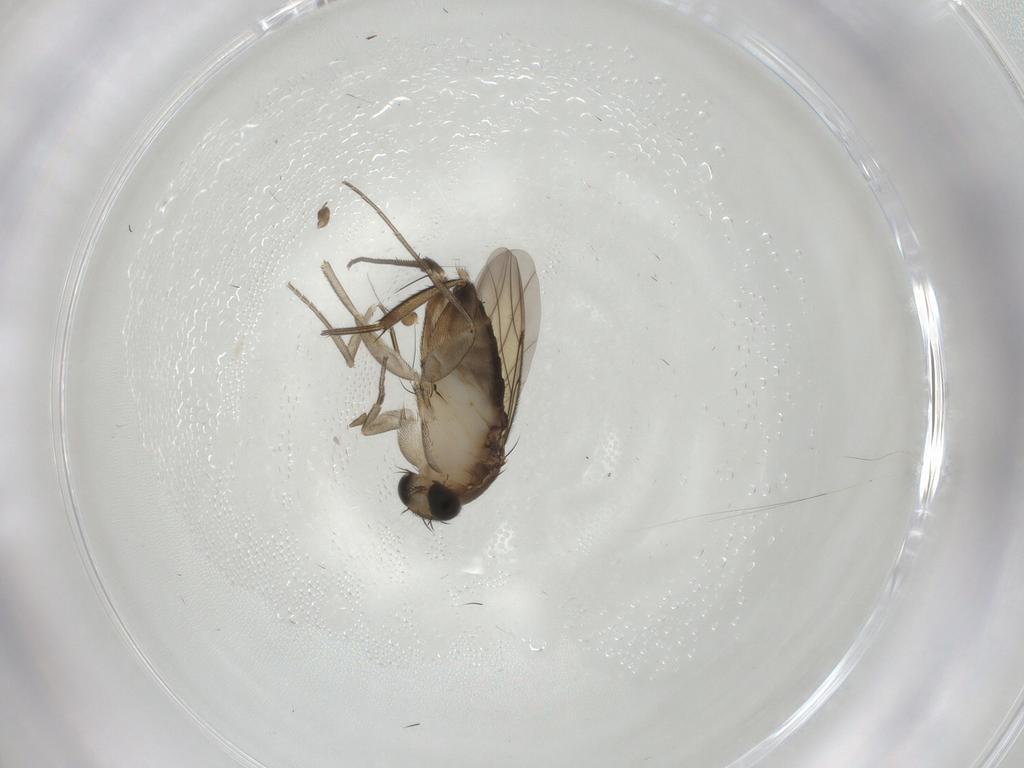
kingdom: Animalia
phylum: Arthropoda
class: Insecta
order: Diptera
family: Phoridae
